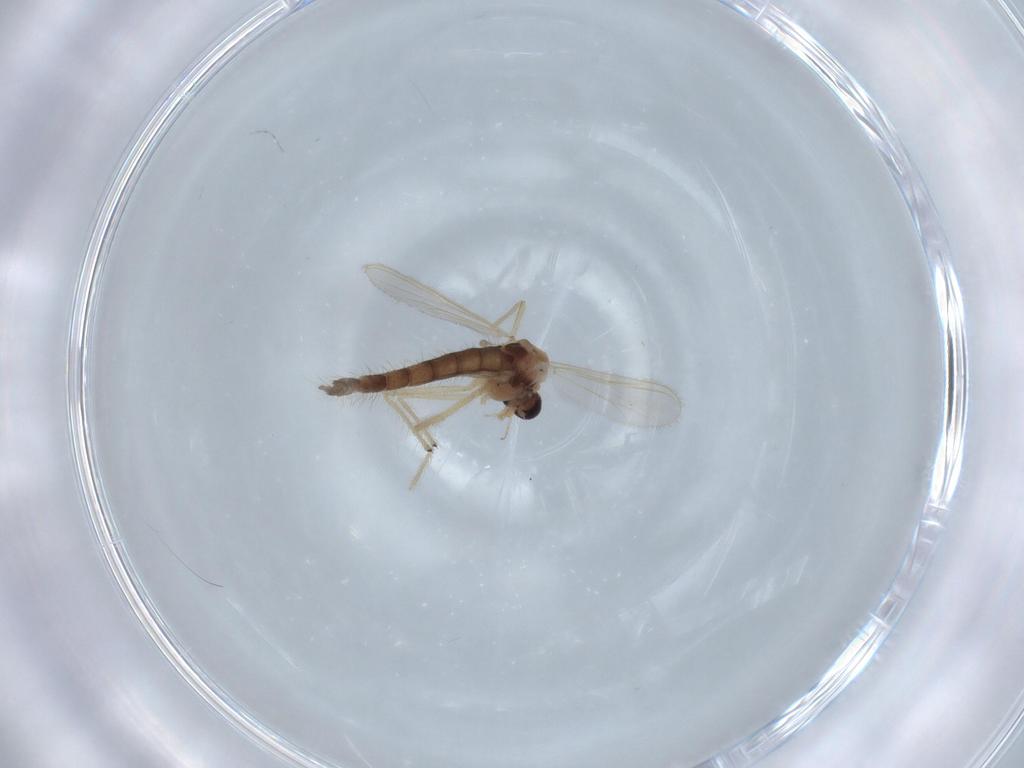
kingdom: Animalia
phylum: Arthropoda
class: Insecta
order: Diptera
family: Chironomidae
